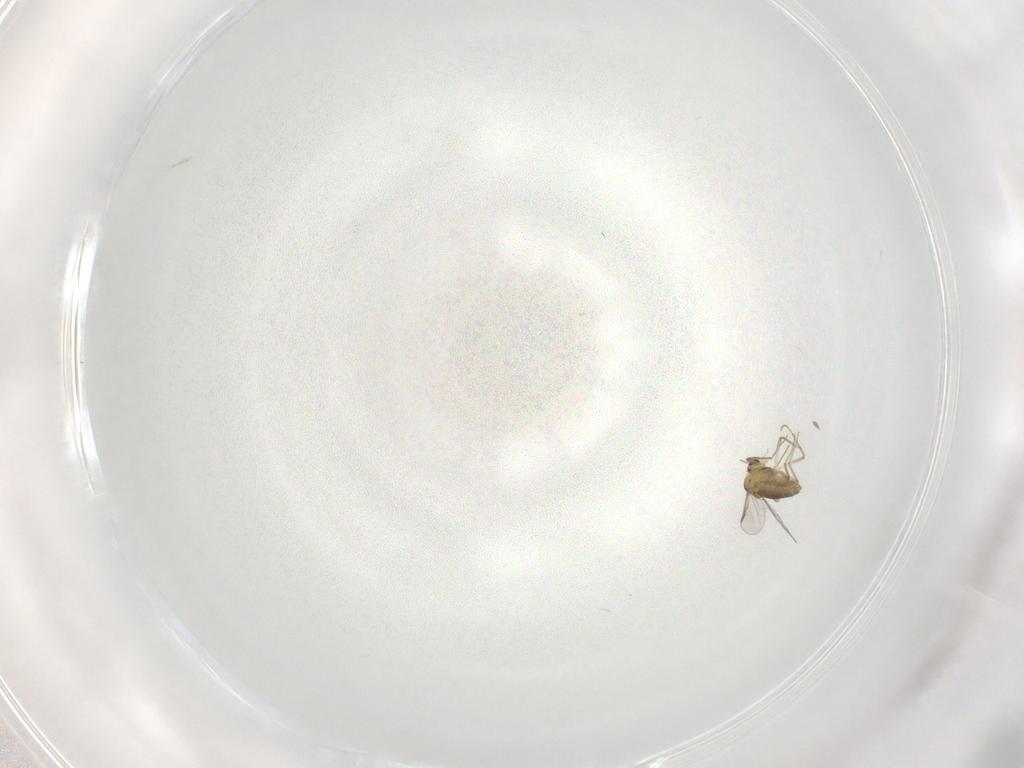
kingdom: Animalia
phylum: Arthropoda
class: Insecta
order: Diptera
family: Chironomidae
